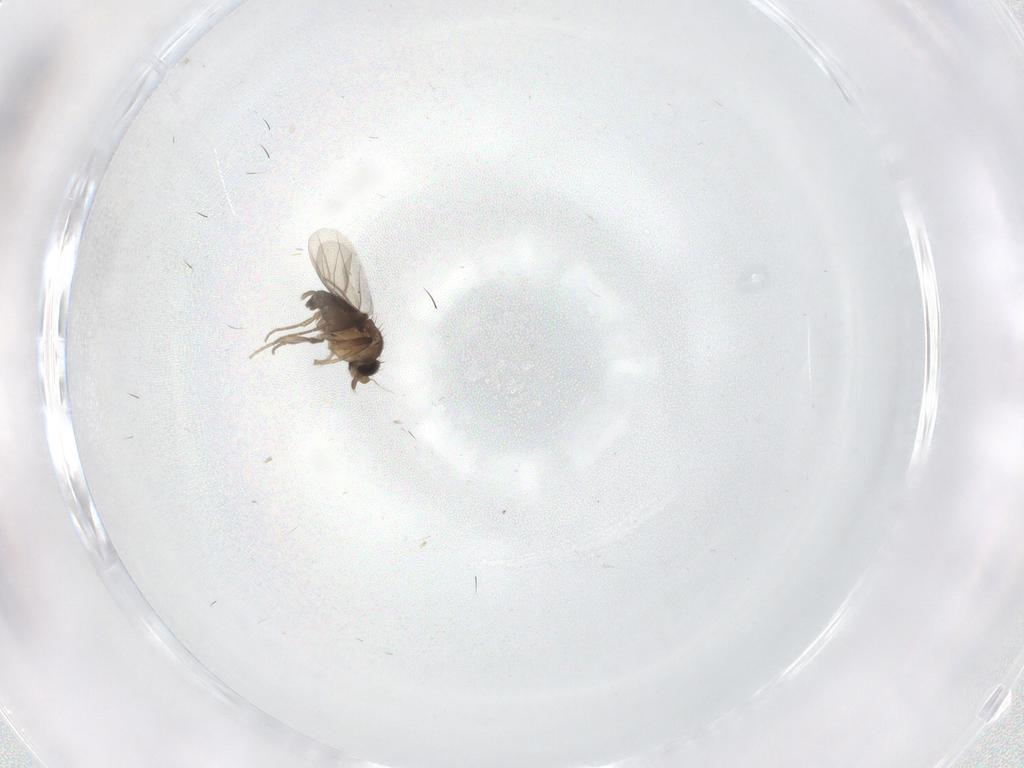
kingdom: Animalia
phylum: Arthropoda
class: Insecta
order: Diptera
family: Phoridae
